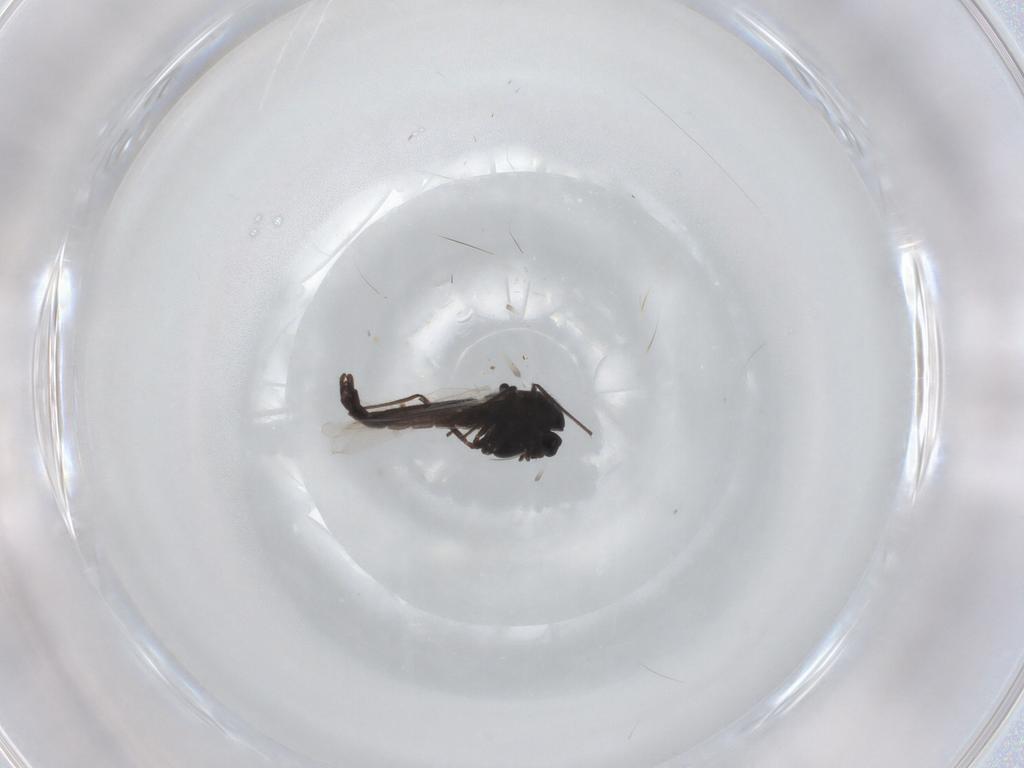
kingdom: Animalia
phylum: Arthropoda
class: Insecta
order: Diptera
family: Chironomidae
